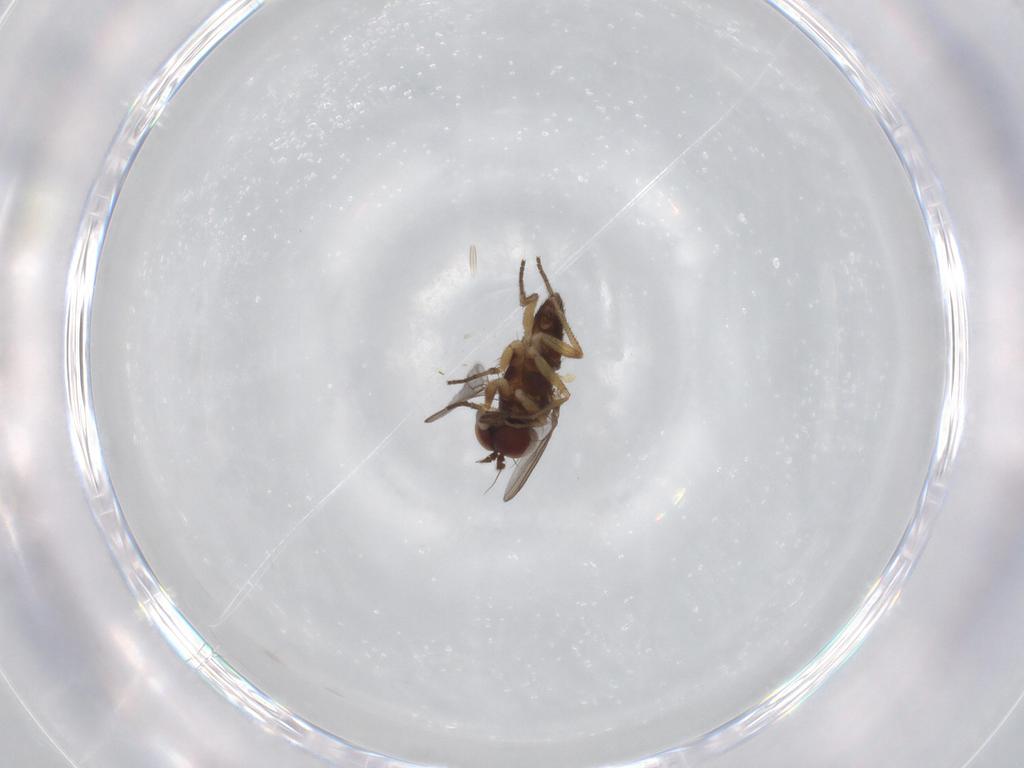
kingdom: Animalia
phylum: Arthropoda
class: Insecta
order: Diptera
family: Dolichopodidae
